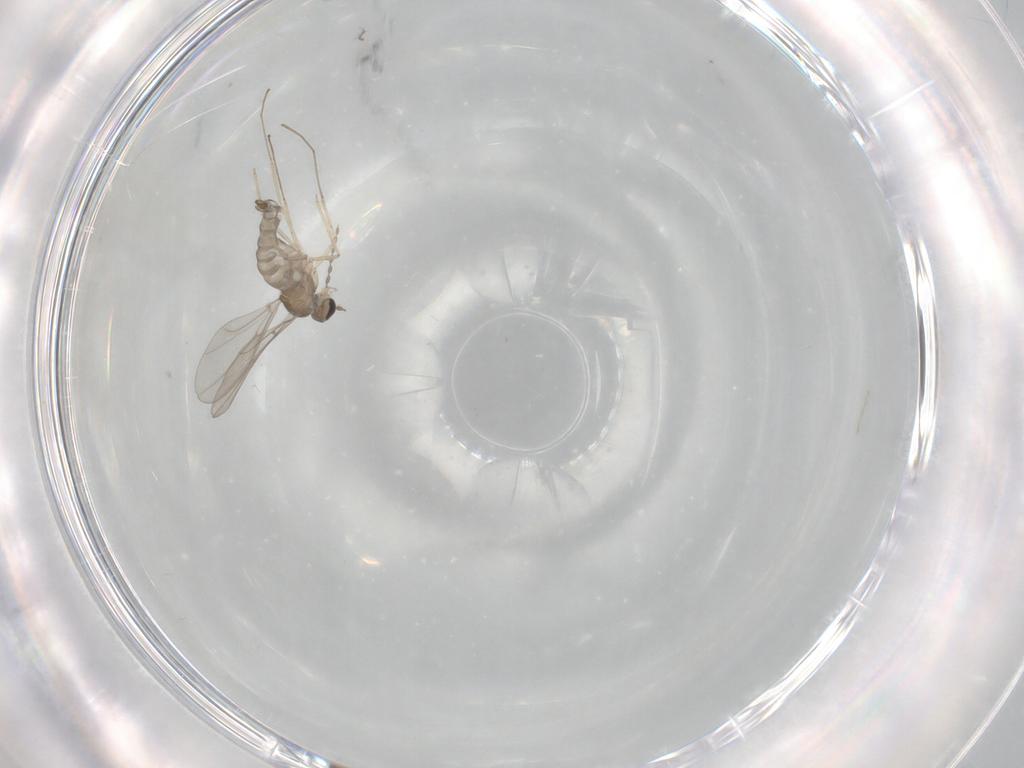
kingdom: Animalia
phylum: Arthropoda
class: Insecta
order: Diptera
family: Cecidomyiidae
